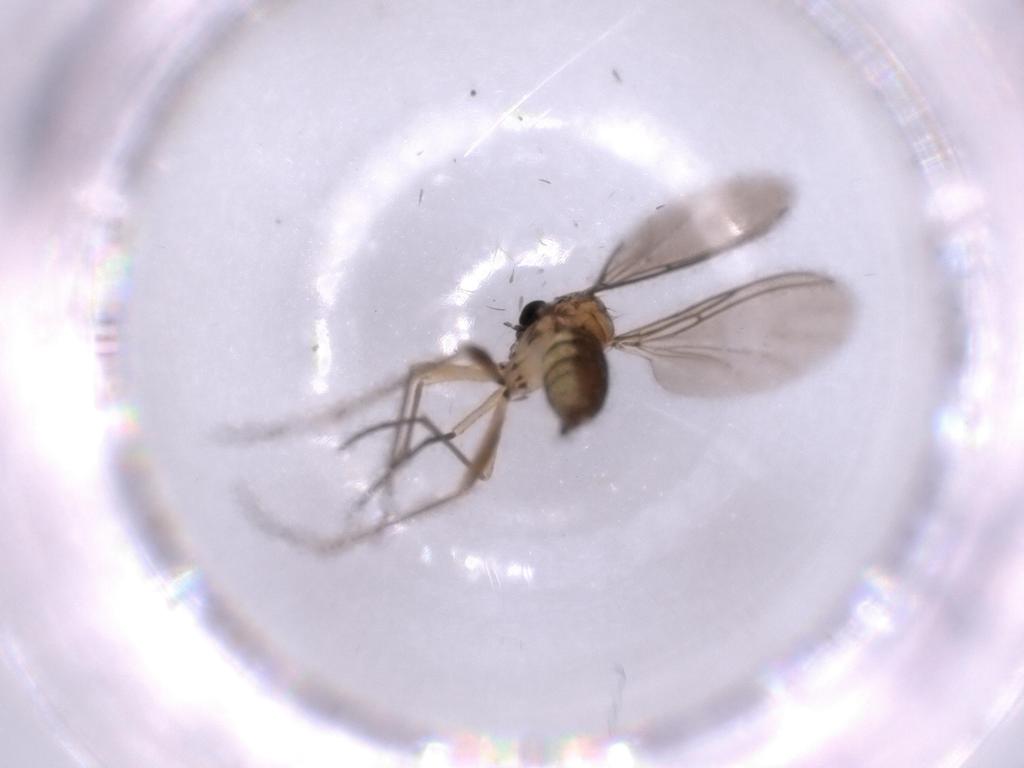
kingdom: Animalia
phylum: Arthropoda
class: Insecta
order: Diptera
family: Sciaridae
